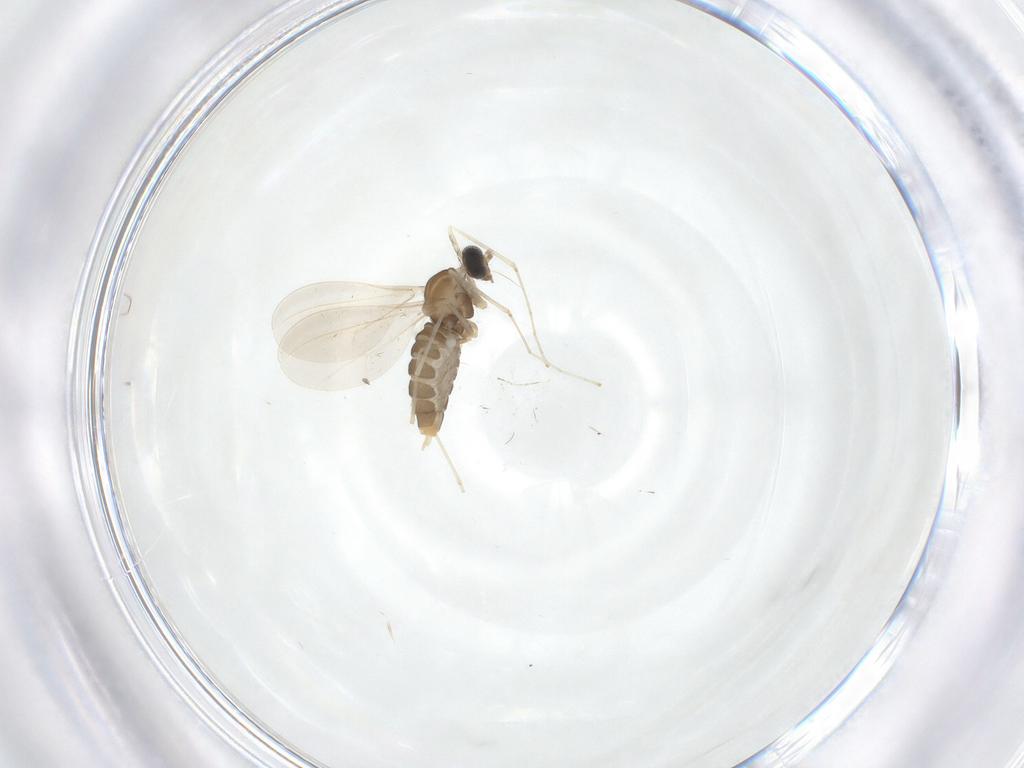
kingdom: Animalia
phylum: Arthropoda
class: Insecta
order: Diptera
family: Cecidomyiidae
